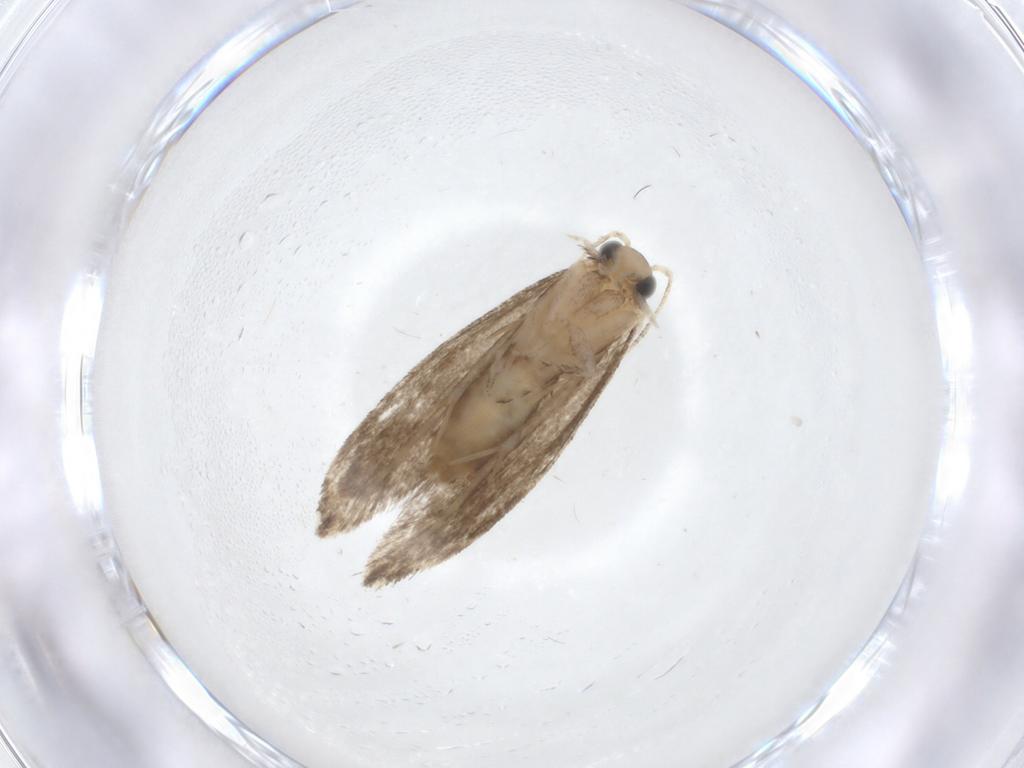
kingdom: Animalia
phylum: Arthropoda
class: Insecta
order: Lepidoptera
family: Tineidae
